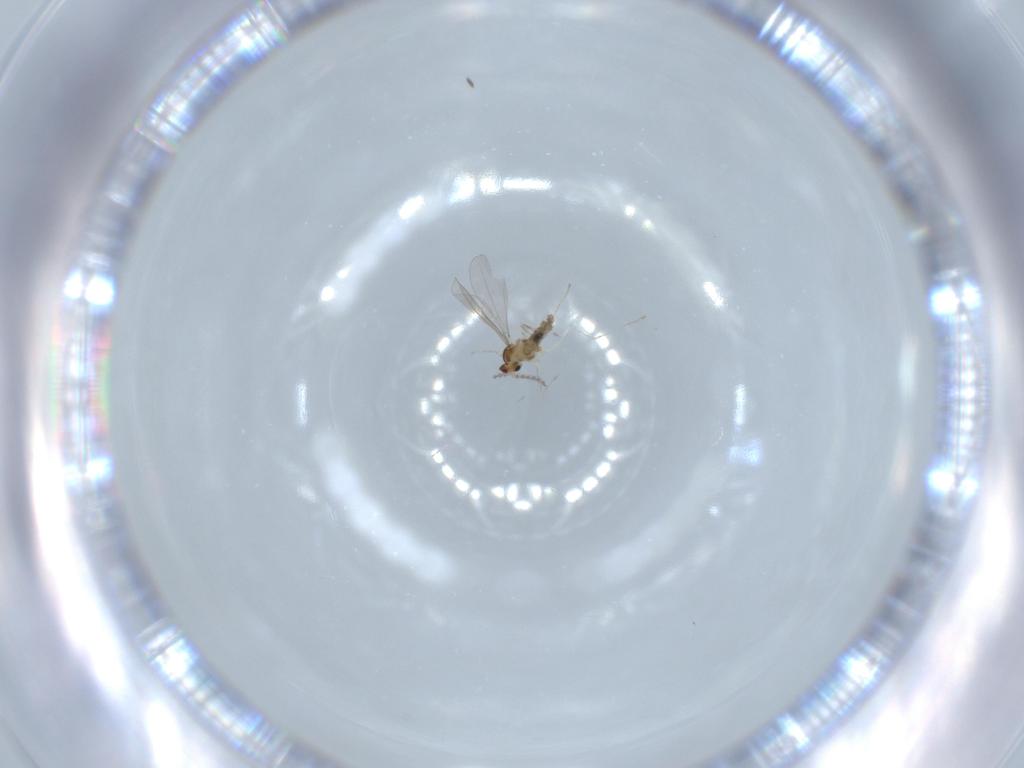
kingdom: Animalia
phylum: Arthropoda
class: Insecta
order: Diptera
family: Cecidomyiidae
